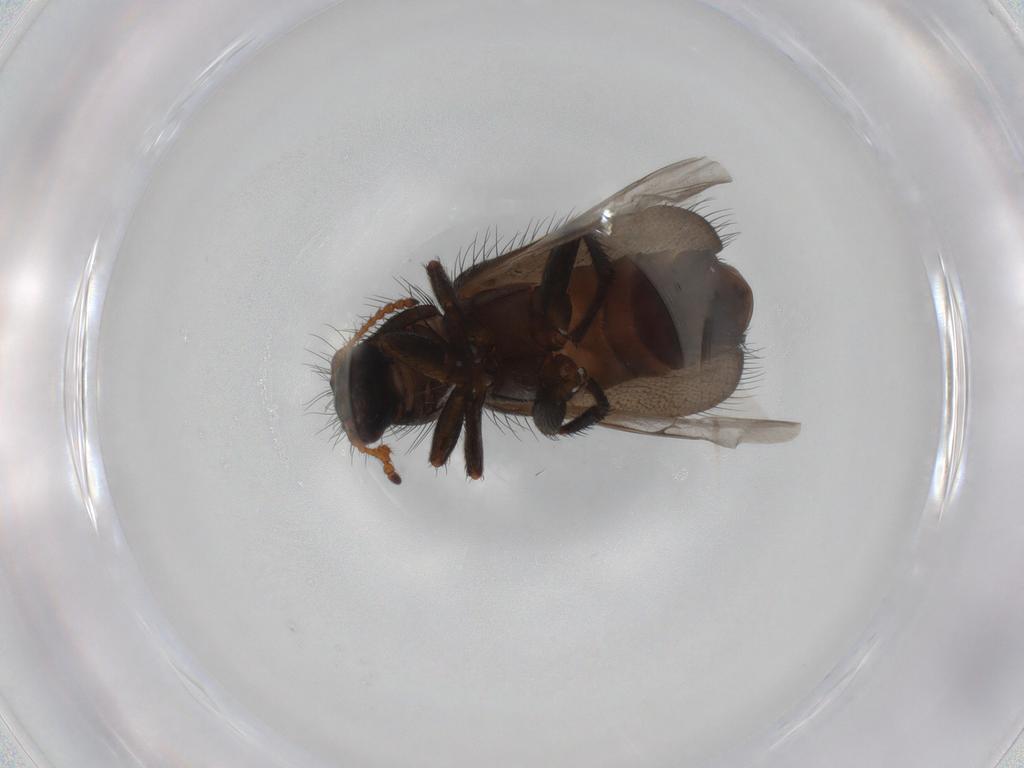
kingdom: Animalia
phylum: Arthropoda
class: Insecta
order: Coleoptera
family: Melyridae
